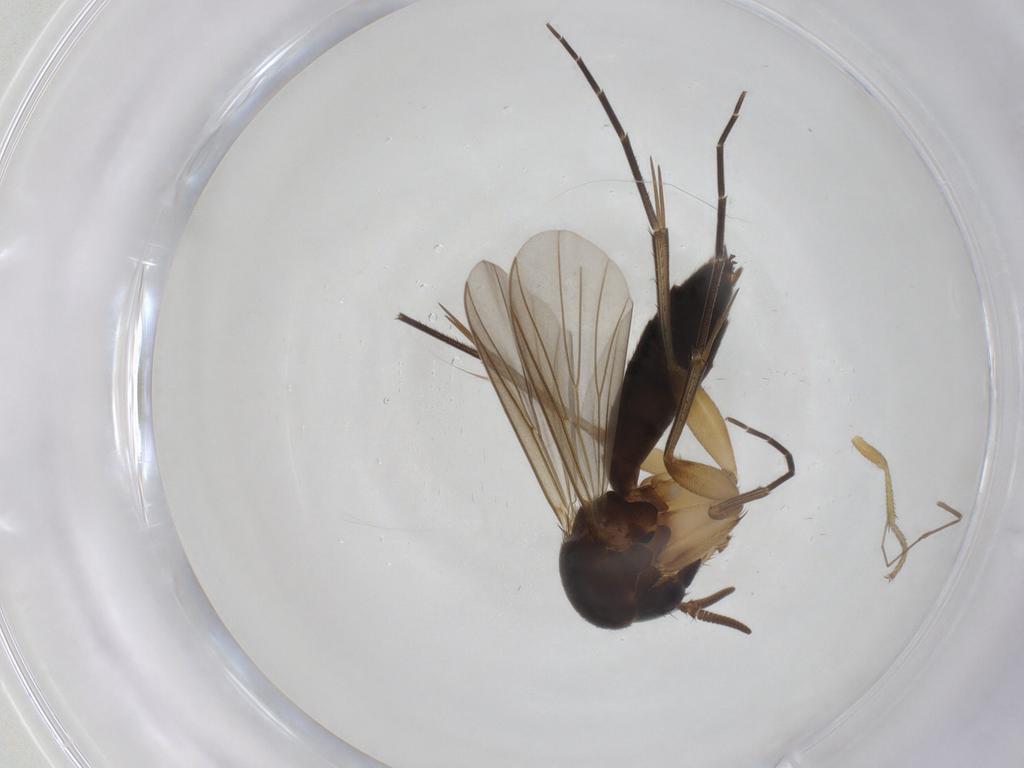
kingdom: Animalia
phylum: Arthropoda
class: Insecta
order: Diptera
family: Mycetophilidae
